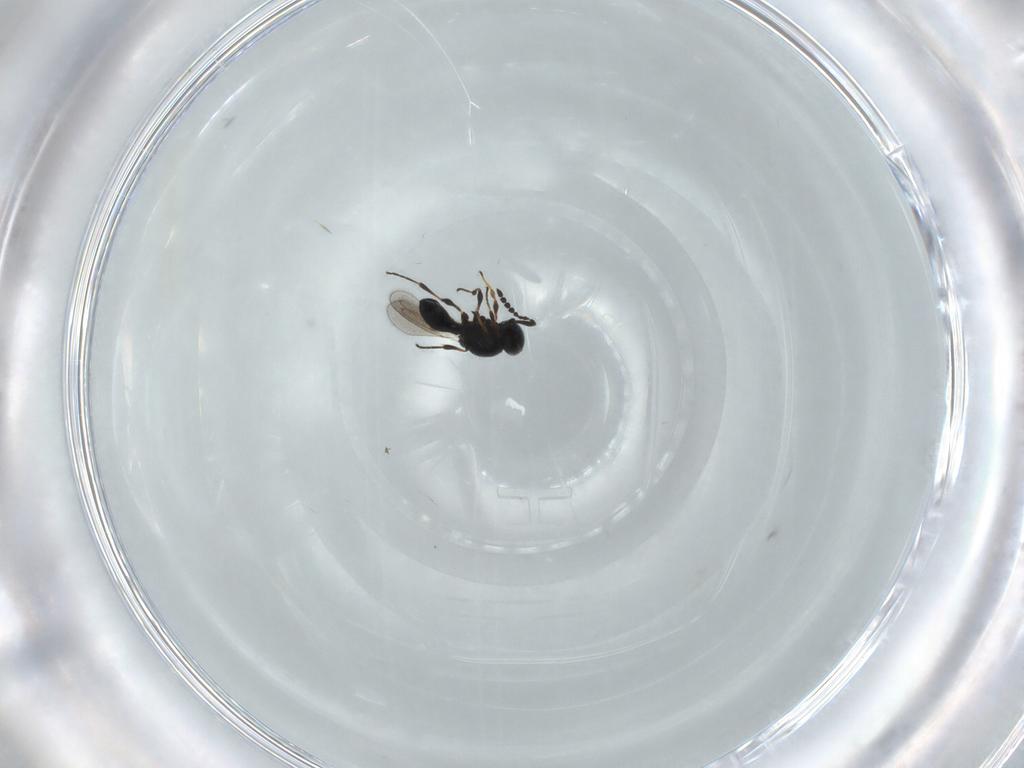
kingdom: Animalia
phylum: Arthropoda
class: Insecta
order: Hymenoptera
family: Platygastridae
